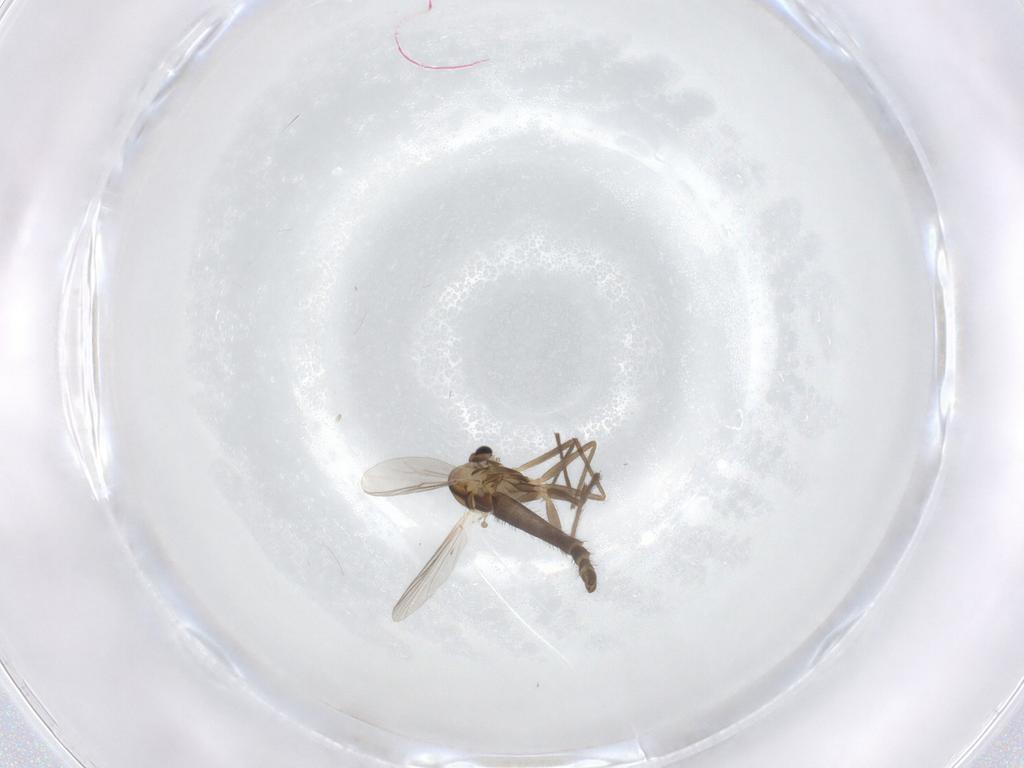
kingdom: Animalia
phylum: Arthropoda
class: Insecta
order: Diptera
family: Chironomidae
